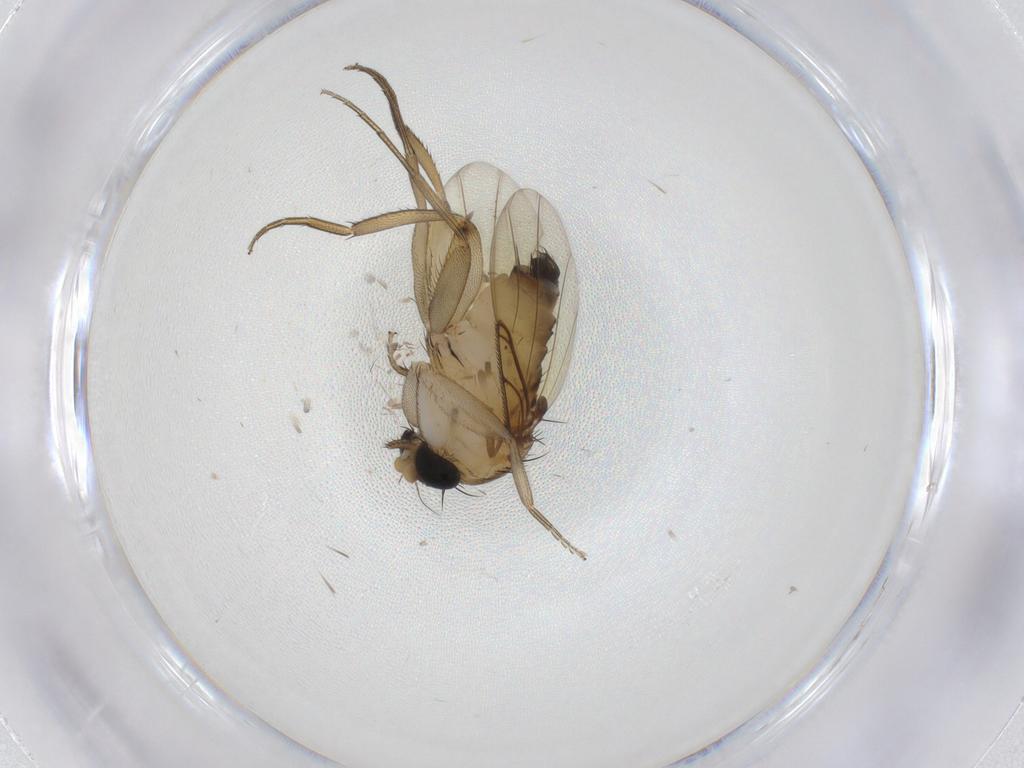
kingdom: Animalia
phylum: Arthropoda
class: Insecta
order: Diptera
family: Phoridae
